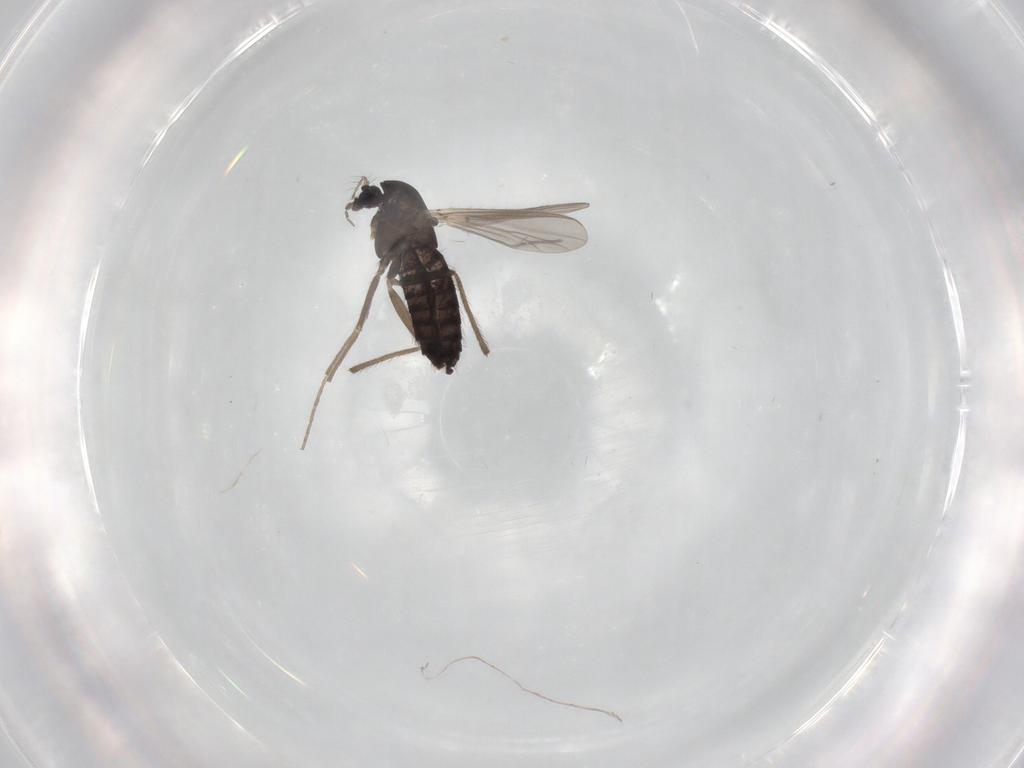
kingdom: Animalia
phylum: Arthropoda
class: Insecta
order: Diptera
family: Chironomidae
